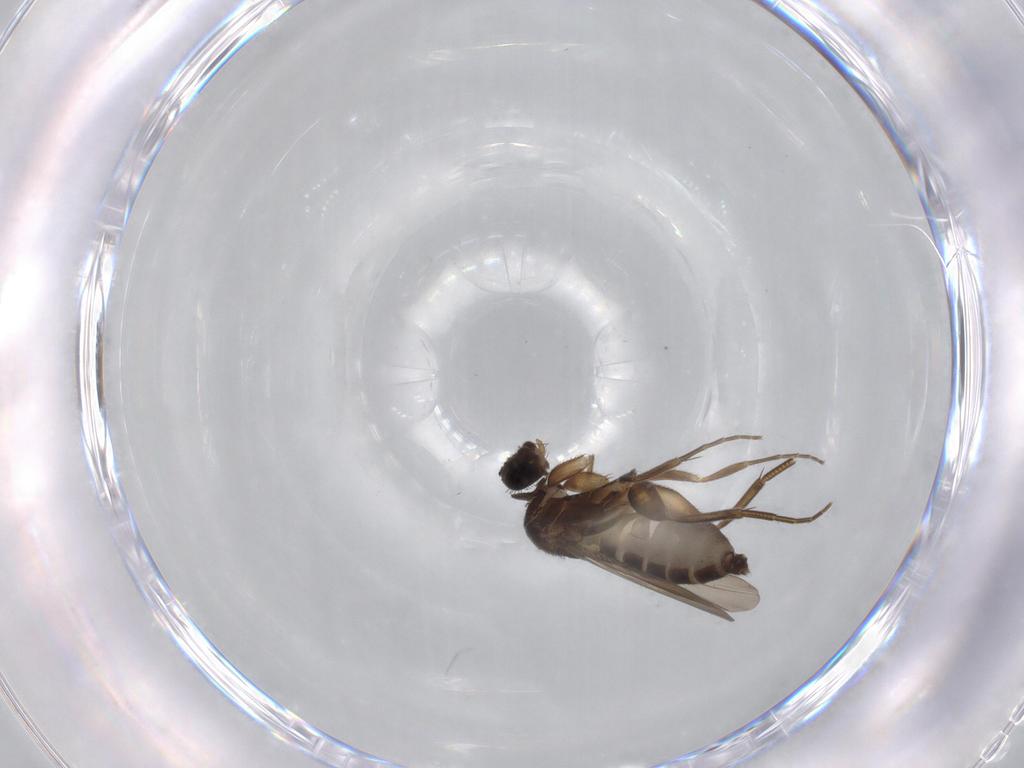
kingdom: Animalia
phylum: Arthropoda
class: Insecta
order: Diptera
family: Phoridae
